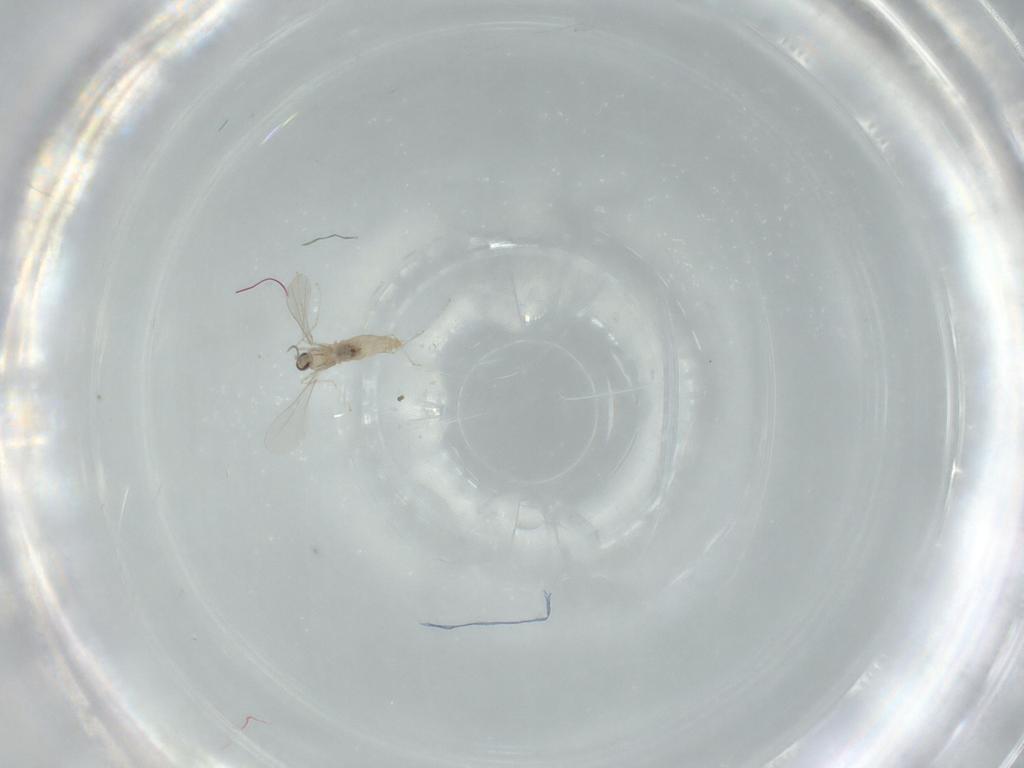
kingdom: Animalia
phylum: Arthropoda
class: Insecta
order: Diptera
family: Cecidomyiidae
